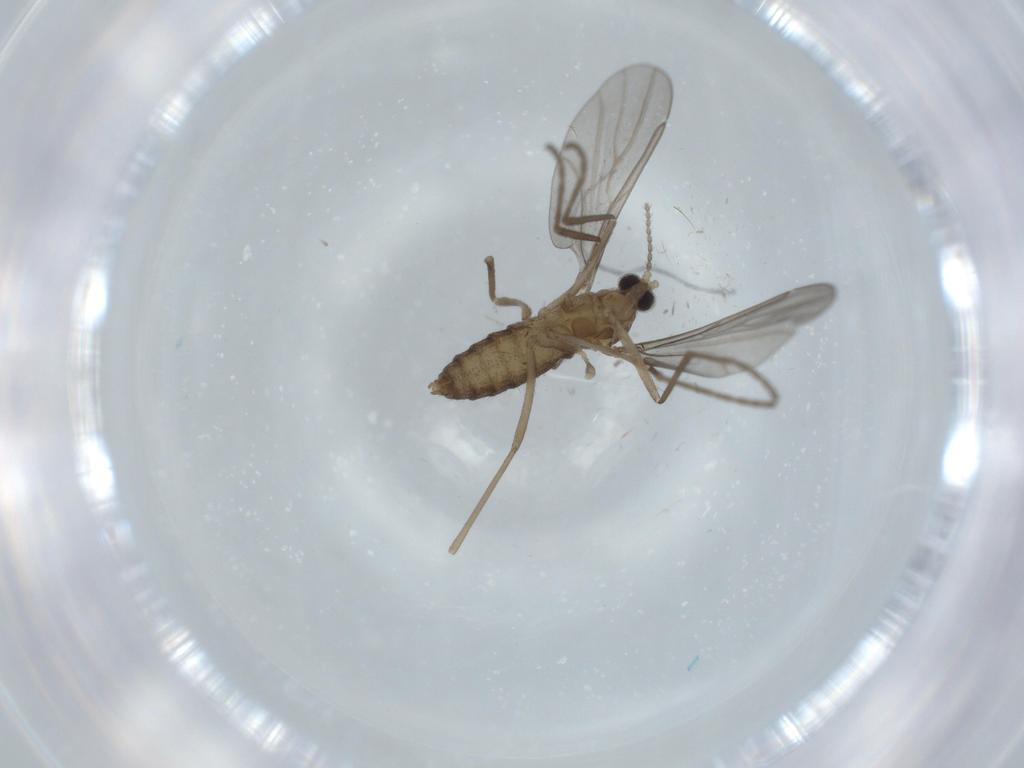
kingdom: Animalia
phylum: Arthropoda
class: Insecta
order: Diptera
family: Cecidomyiidae
